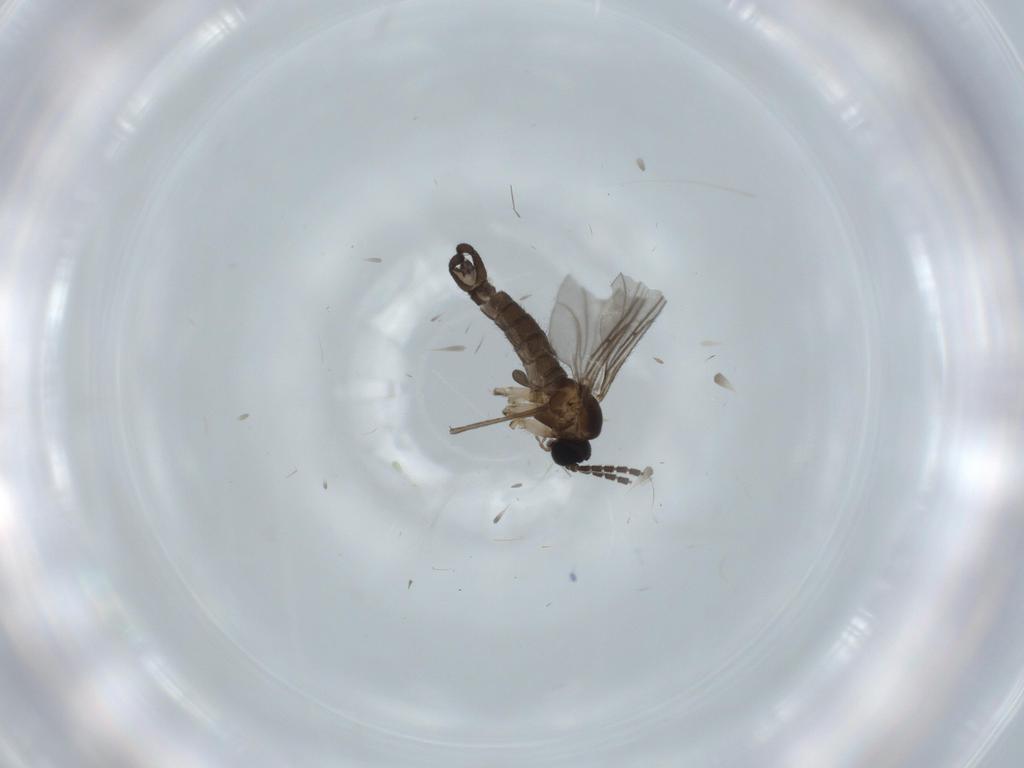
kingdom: Animalia
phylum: Arthropoda
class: Insecta
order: Diptera
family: Sciaridae
